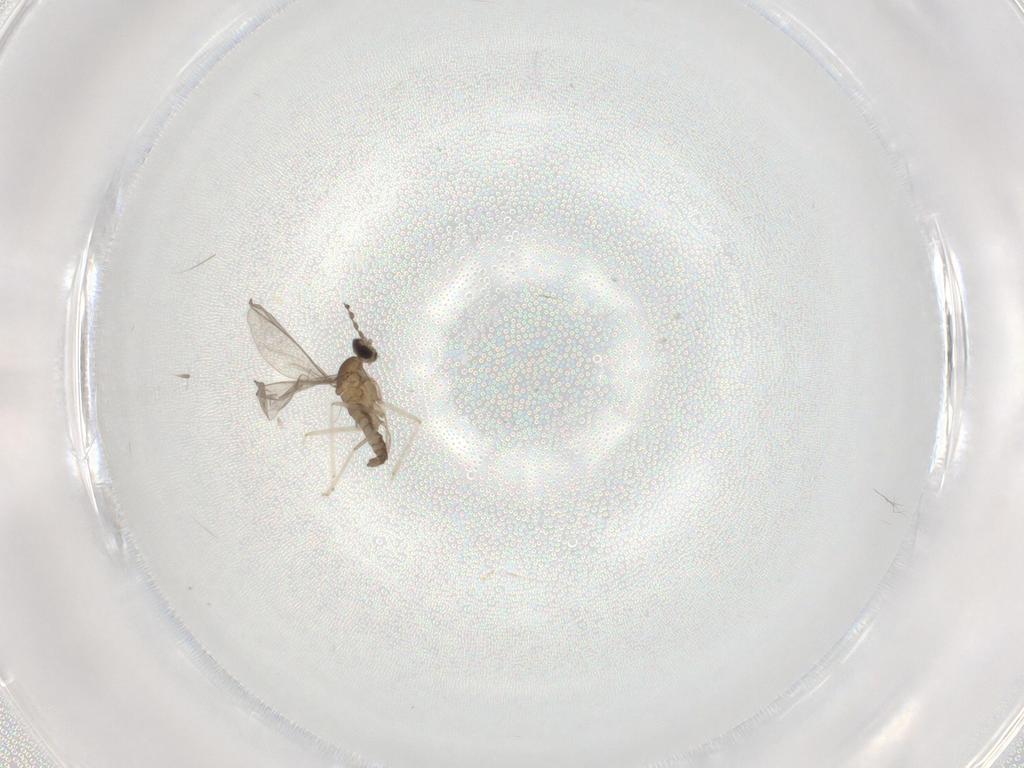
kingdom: Animalia
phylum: Arthropoda
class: Insecta
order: Diptera
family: Cecidomyiidae
